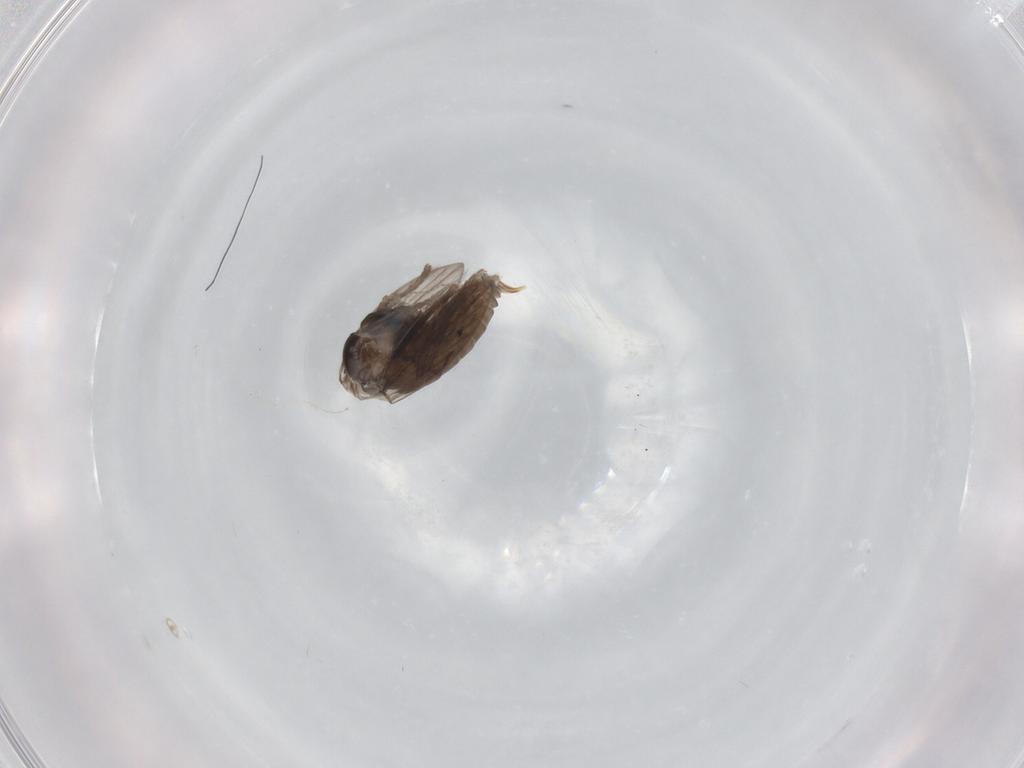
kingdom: Animalia
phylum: Arthropoda
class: Insecta
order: Diptera
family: Psychodidae
